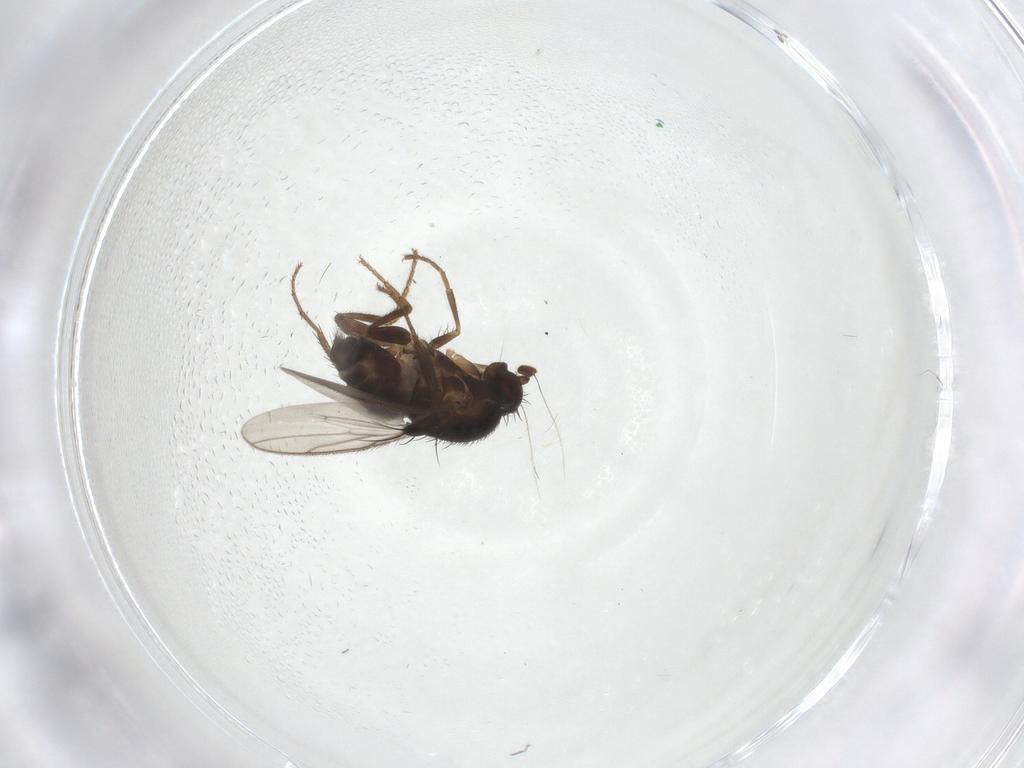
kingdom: Animalia
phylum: Arthropoda
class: Insecta
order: Diptera
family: Sphaeroceridae
